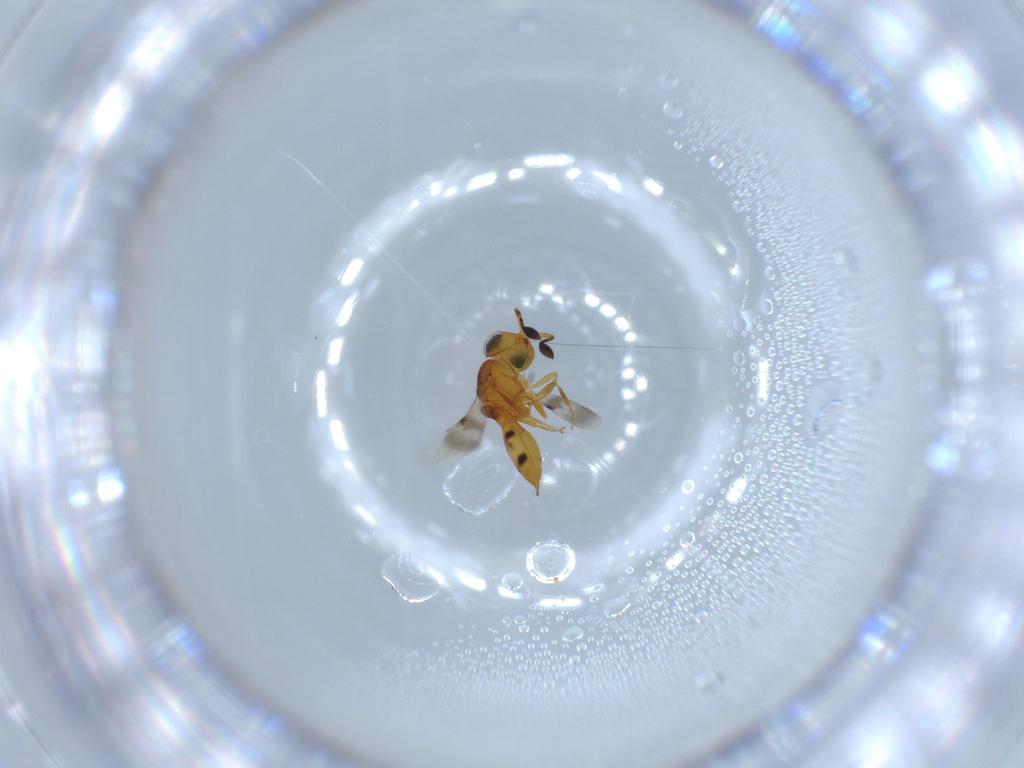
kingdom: Animalia
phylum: Arthropoda
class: Insecta
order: Hymenoptera
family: Scelionidae
